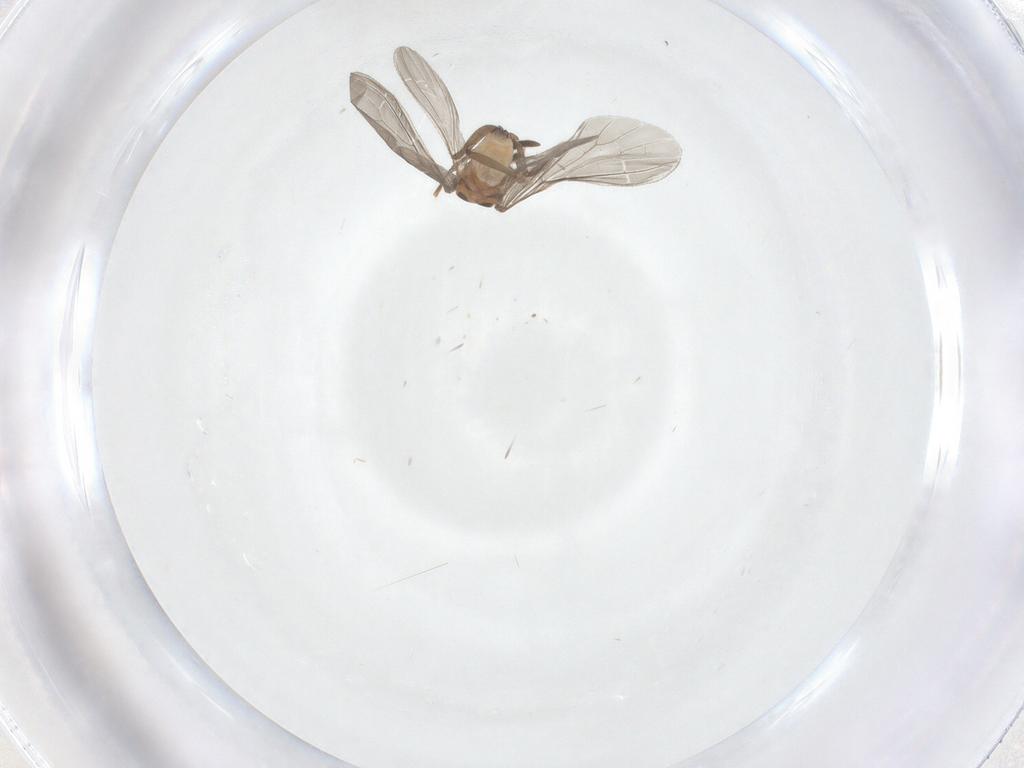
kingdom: Animalia
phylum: Arthropoda
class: Insecta
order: Neuroptera
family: Coniopterygidae
